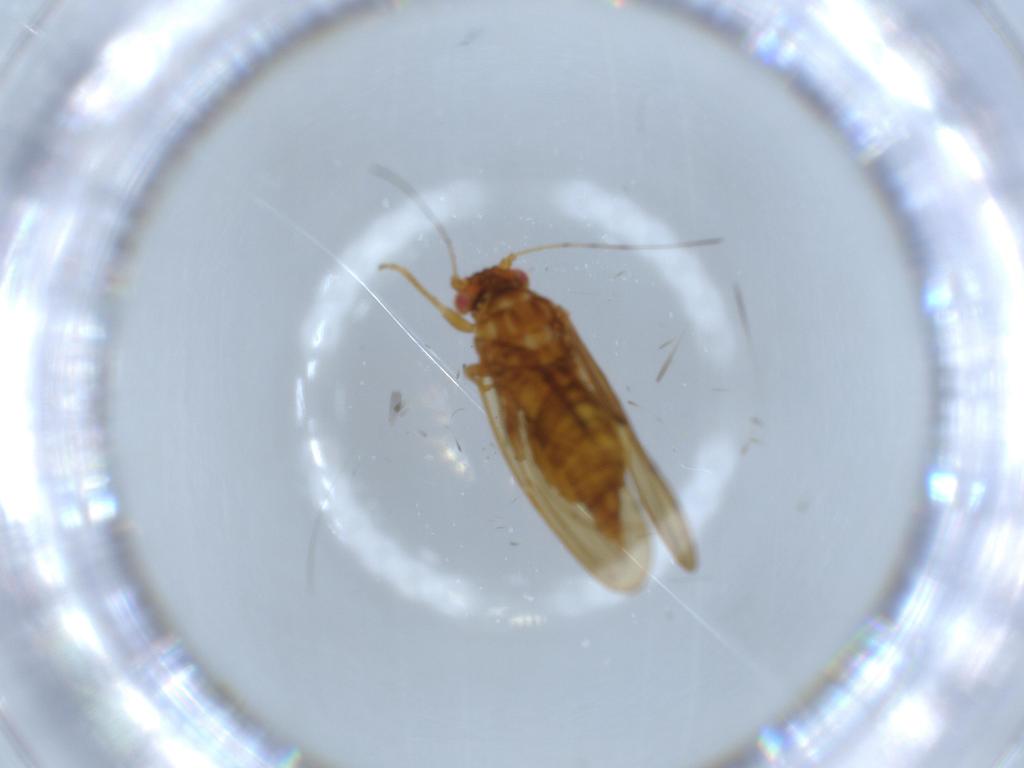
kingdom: Animalia
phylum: Arthropoda
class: Insecta
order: Hemiptera
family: Psylloidea_incertae_sedis
